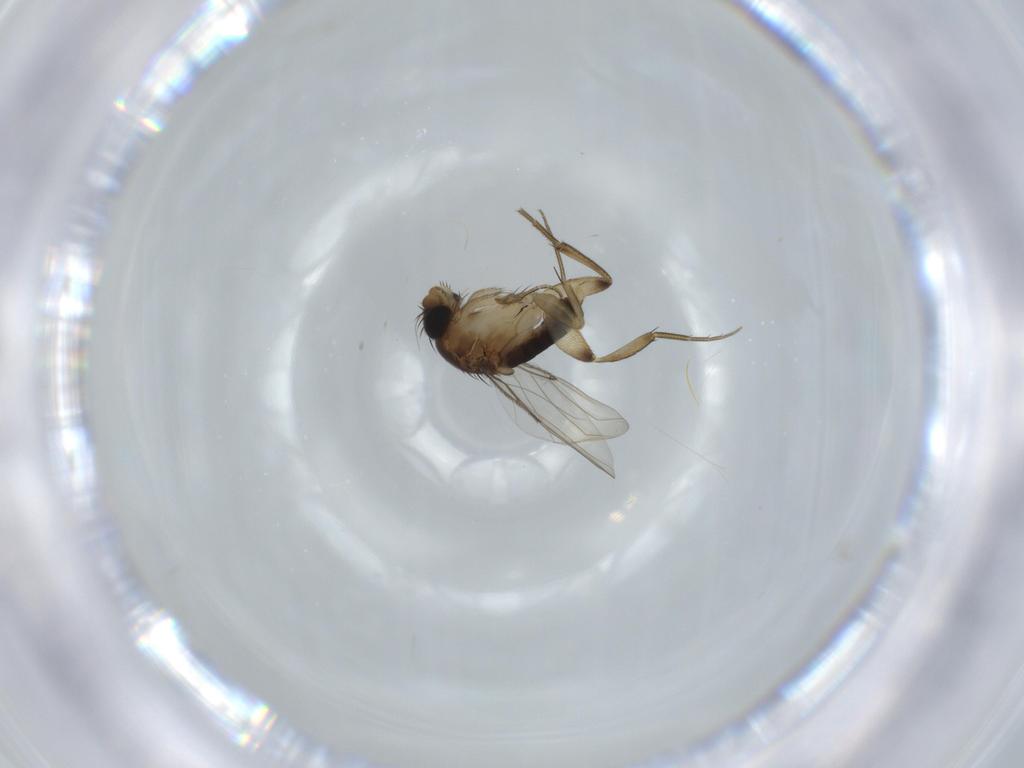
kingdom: Animalia
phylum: Arthropoda
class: Insecta
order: Diptera
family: Phoridae
